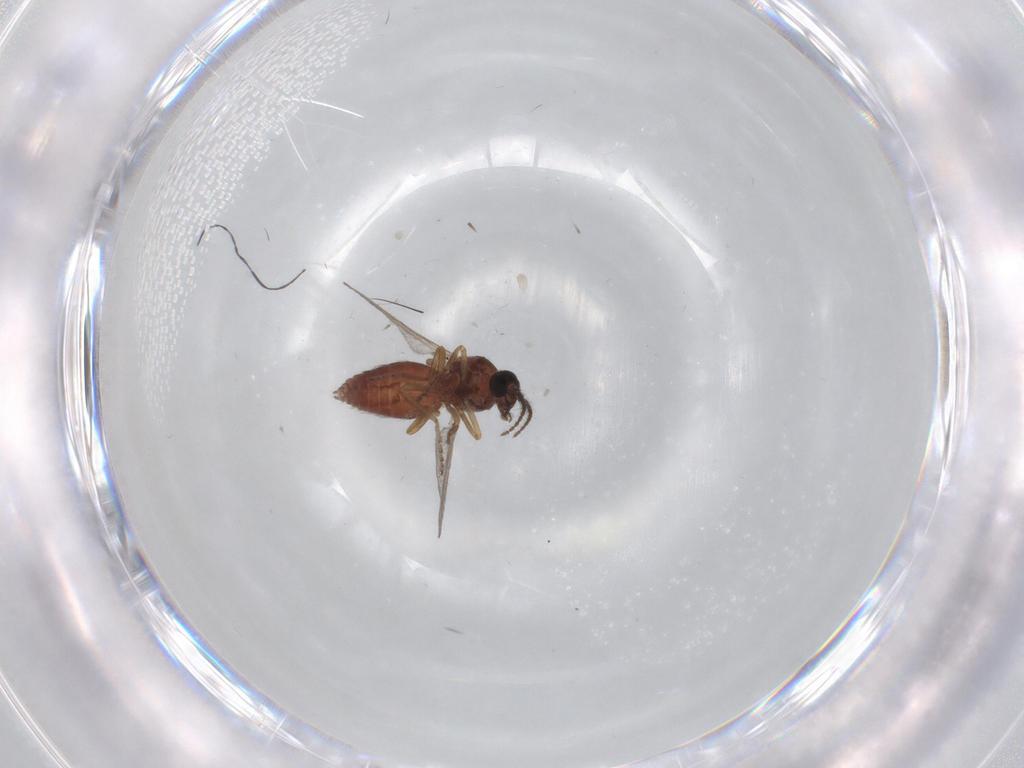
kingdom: Animalia
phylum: Arthropoda
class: Insecta
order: Diptera
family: Ceratopogonidae
